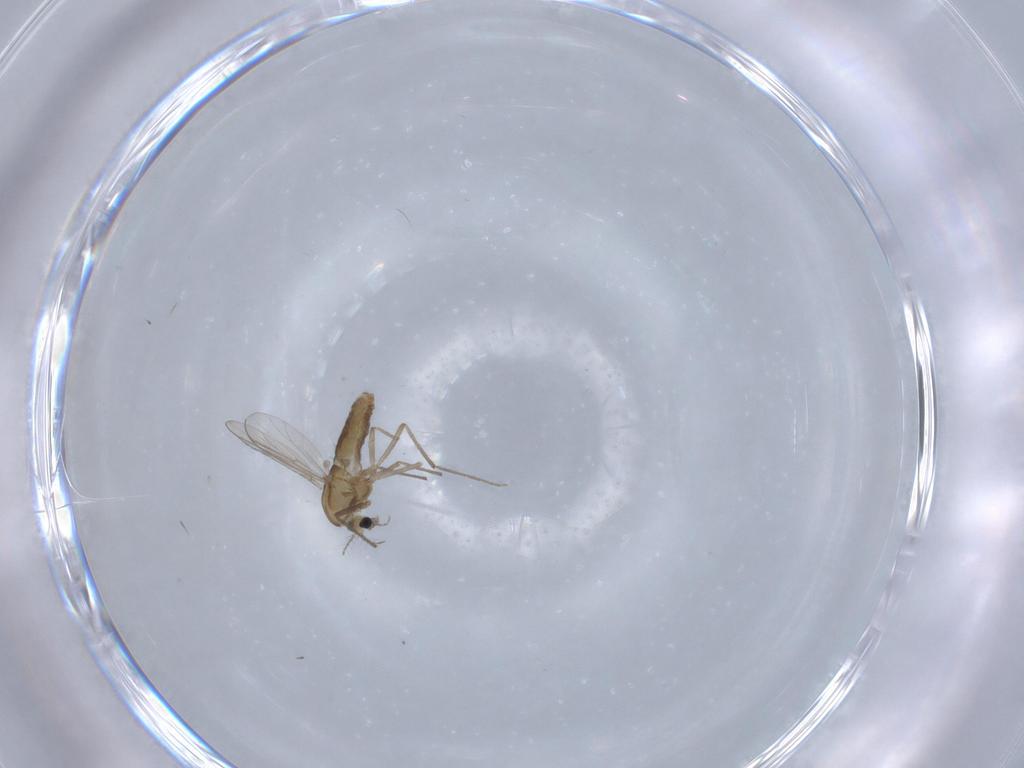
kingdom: Animalia
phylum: Arthropoda
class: Insecta
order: Diptera
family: Chironomidae
